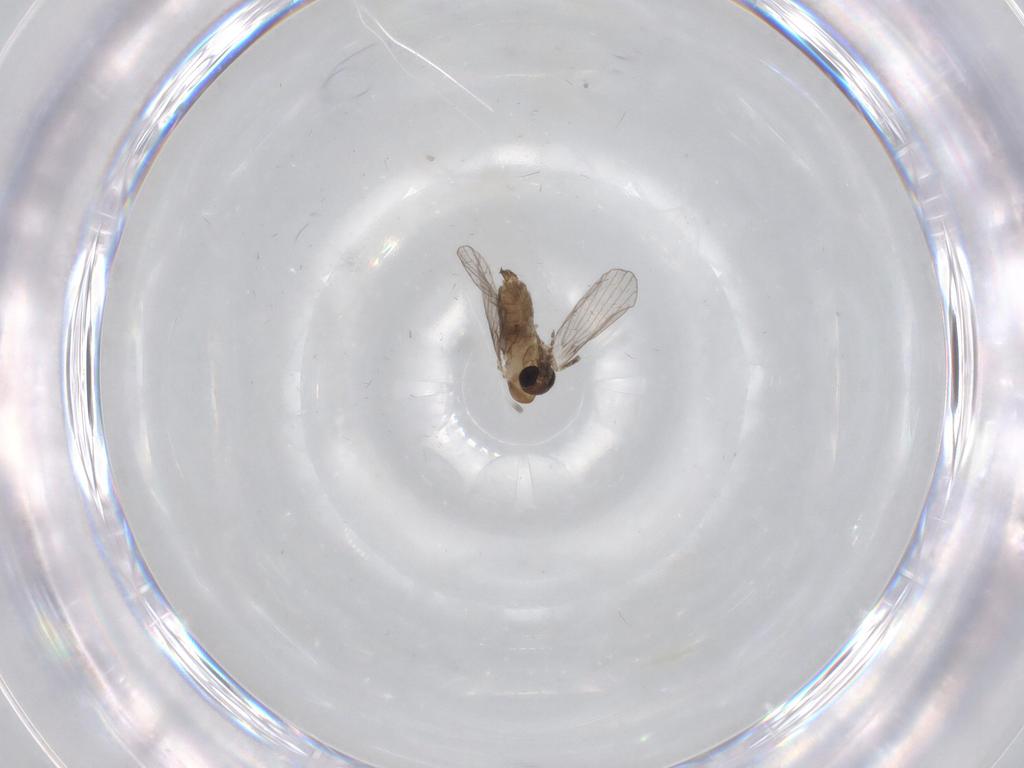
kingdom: Animalia
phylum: Arthropoda
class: Insecta
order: Diptera
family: Psychodidae
